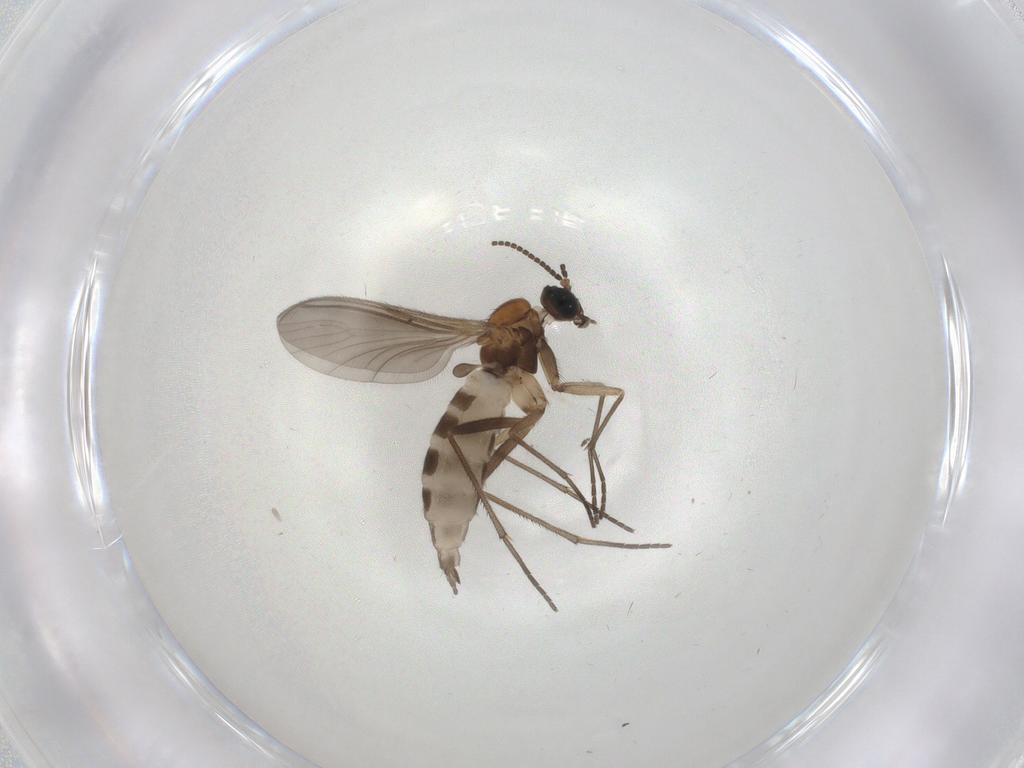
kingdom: Animalia
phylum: Arthropoda
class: Insecta
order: Diptera
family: Sciaridae
